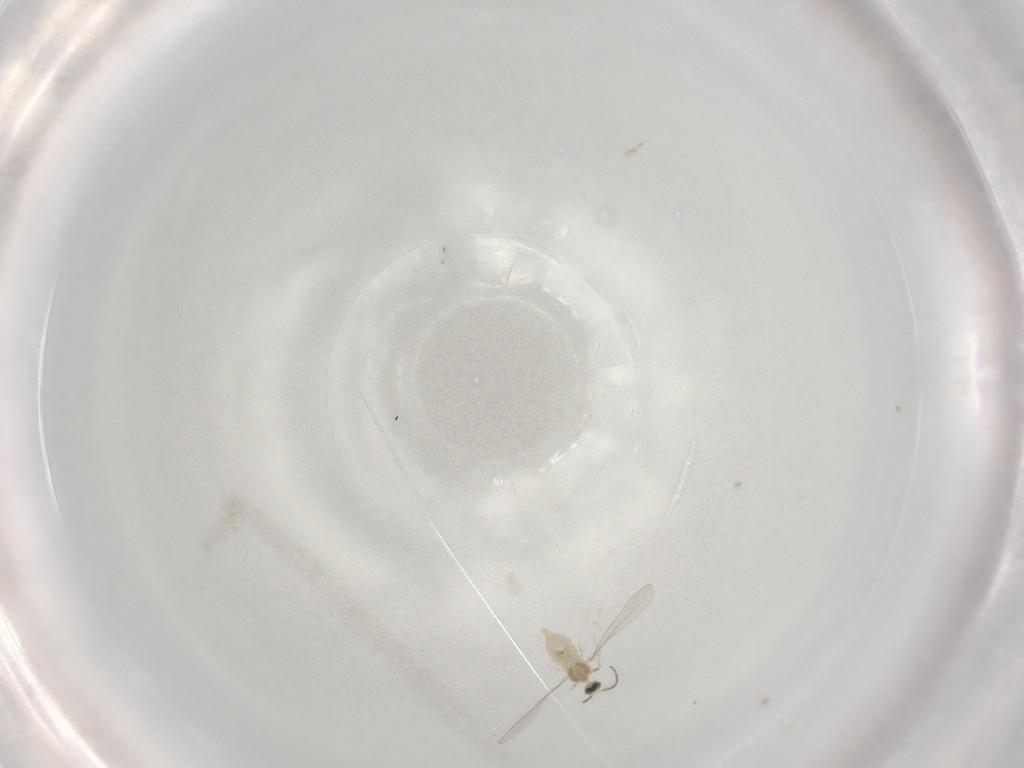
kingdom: Animalia
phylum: Arthropoda
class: Insecta
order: Diptera
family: Cecidomyiidae
